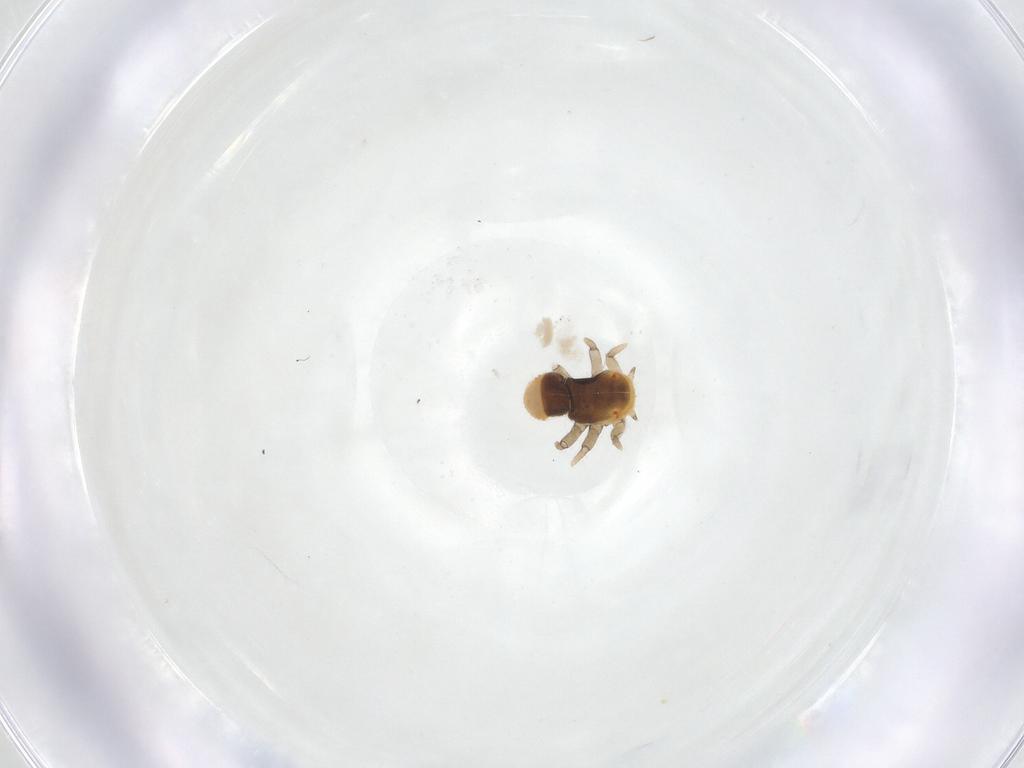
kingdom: Animalia
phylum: Arthropoda
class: Insecta
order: Hemiptera
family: Triozidae
